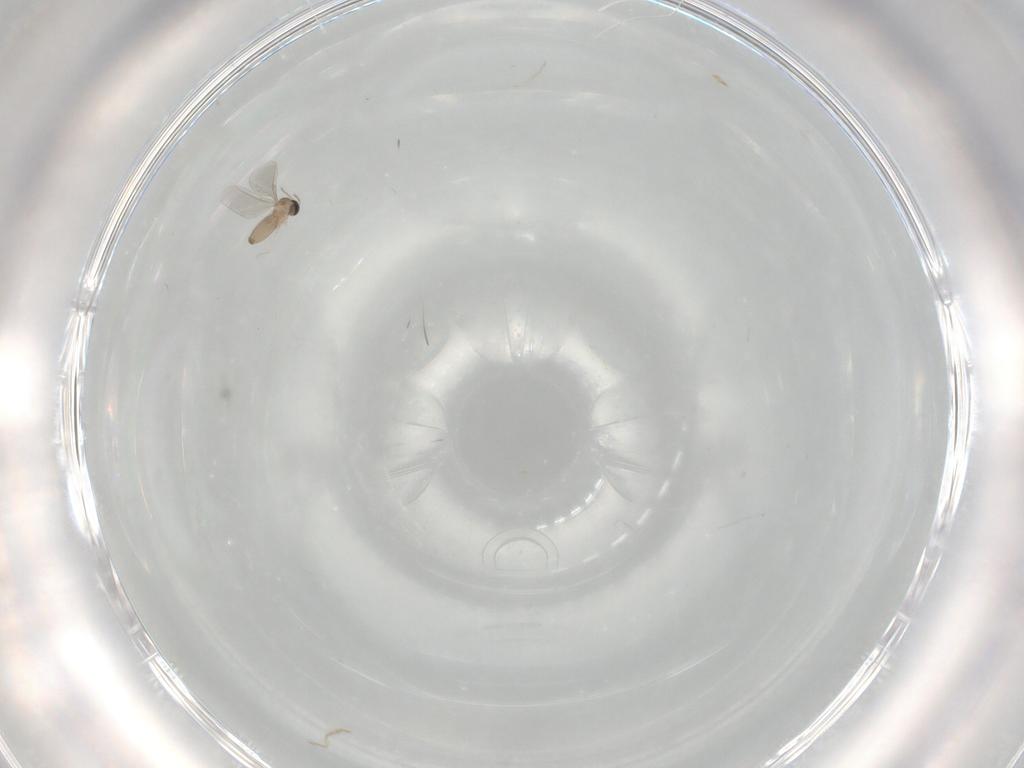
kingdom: Animalia
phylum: Arthropoda
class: Insecta
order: Diptera
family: Cecidomyiidae
